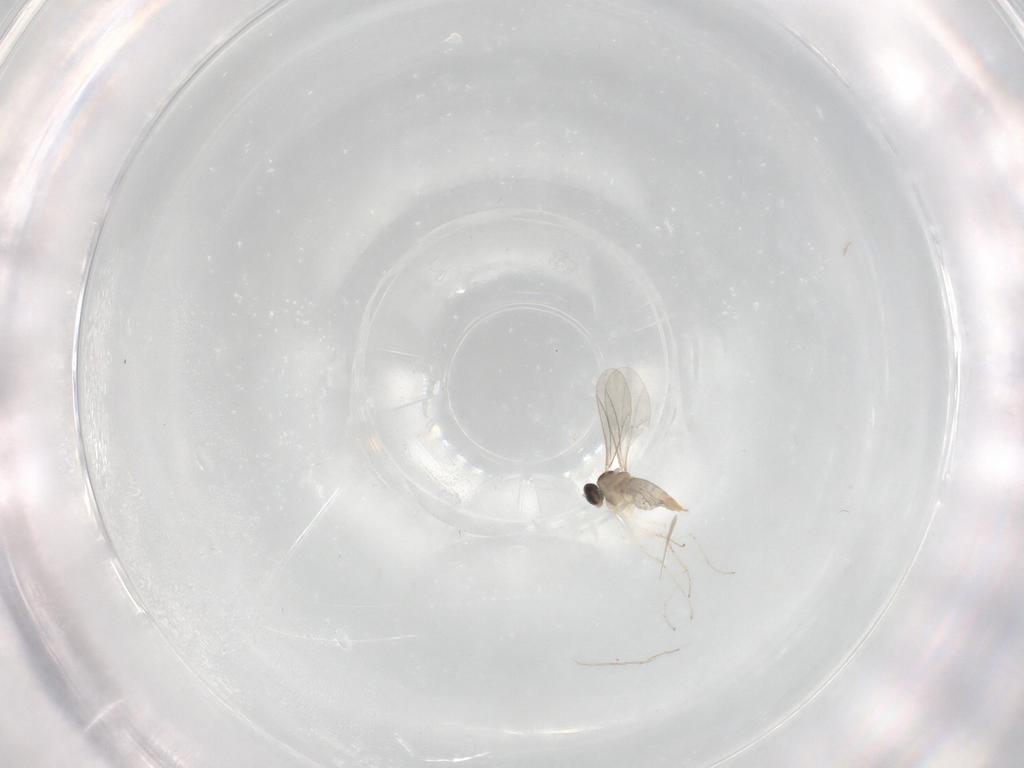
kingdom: Animalia
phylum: Arthropoda
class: Insecta
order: Diptera
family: Cecidomyiidae
